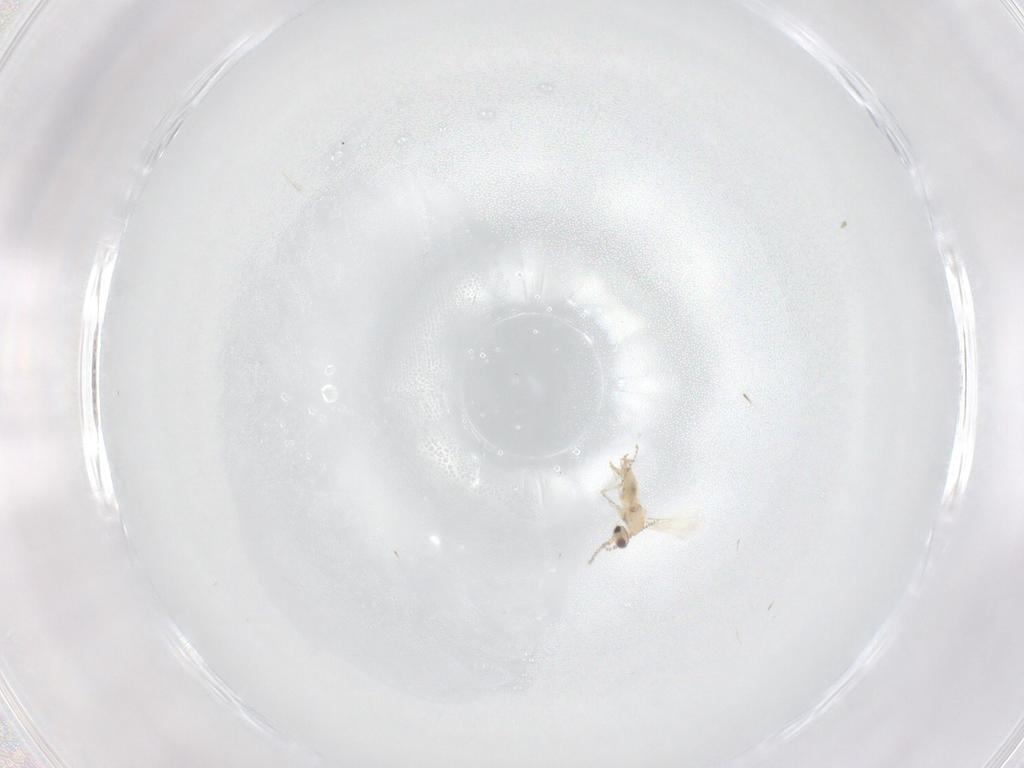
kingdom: Animalia
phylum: Arthropoda
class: Insecta
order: Diptera
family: Cecidomyiidae
